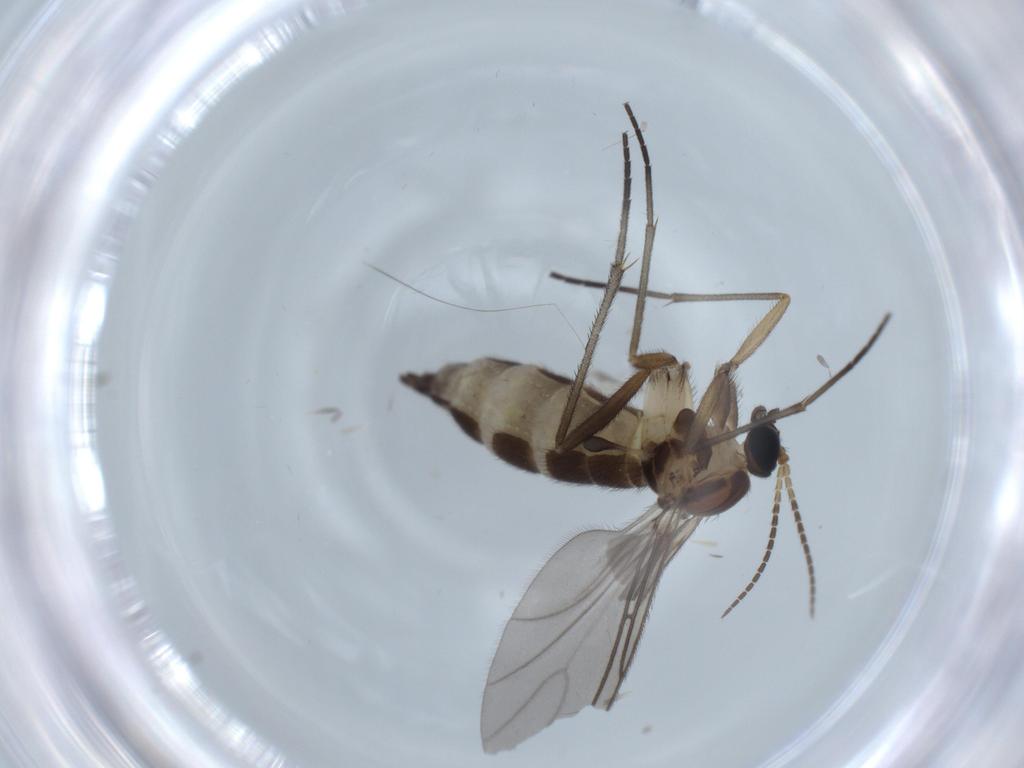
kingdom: Animalia
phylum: Arthropoda
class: Insecta
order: Diptera
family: Sciaridae
